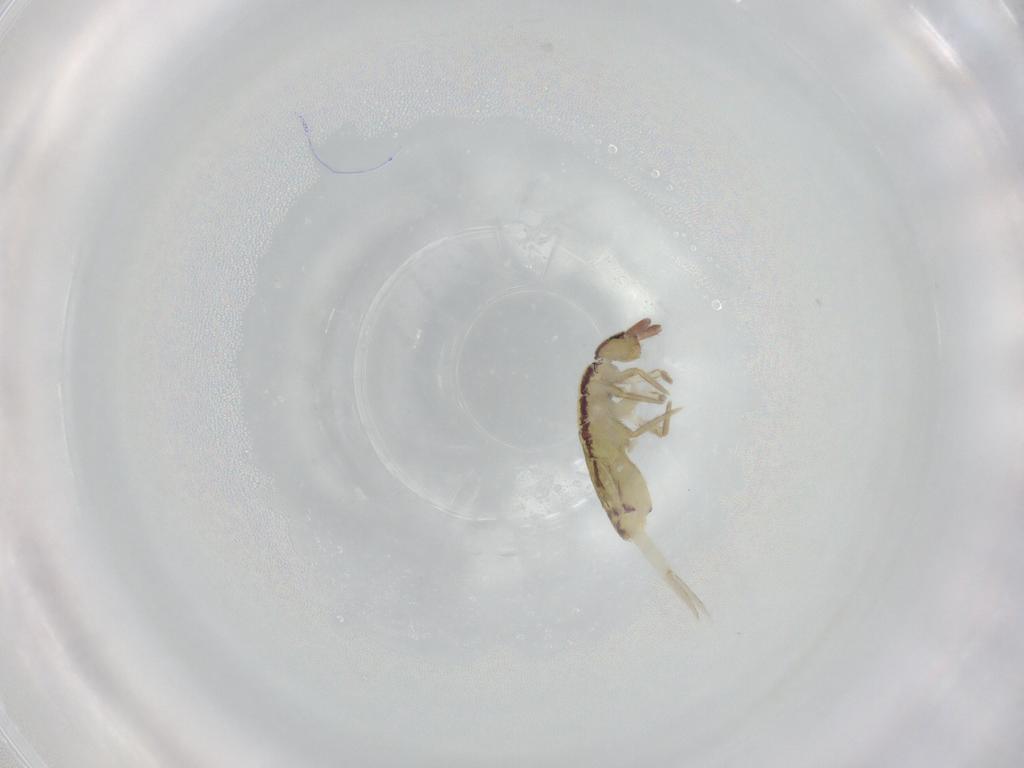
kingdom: Animalia
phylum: Arthropoda
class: Collembola
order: Entomobryomorpha
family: Entomobryidae
